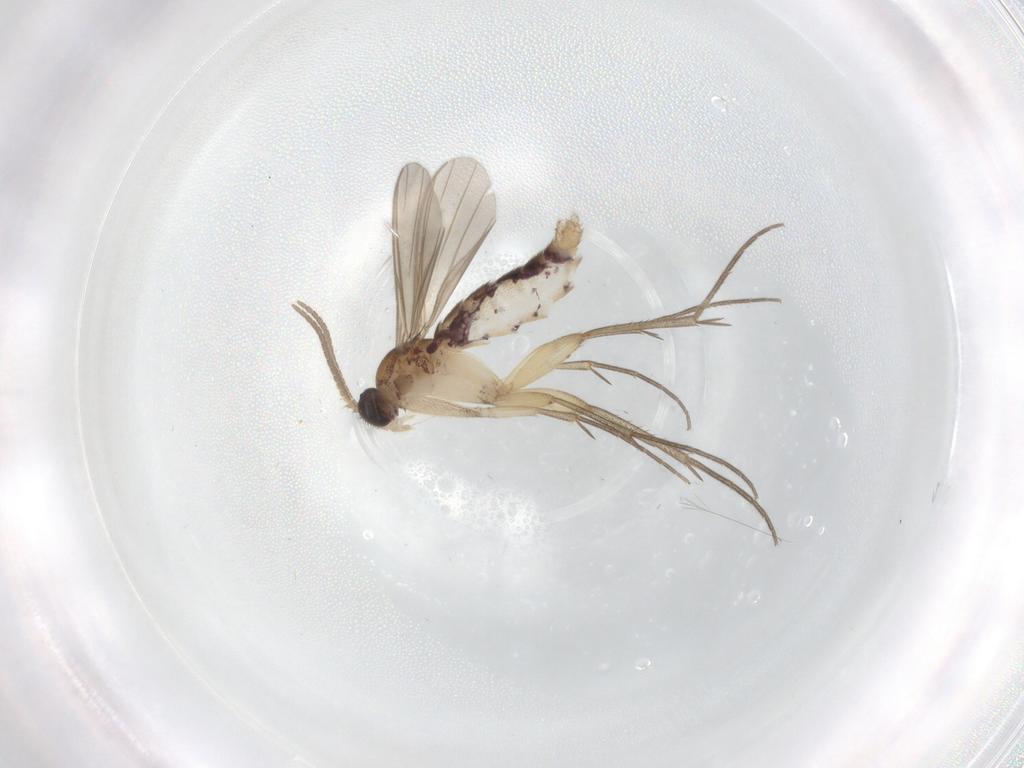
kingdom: Animalia
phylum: Arthropoda
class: Insecta
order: Diptera
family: Mycetophilidae
